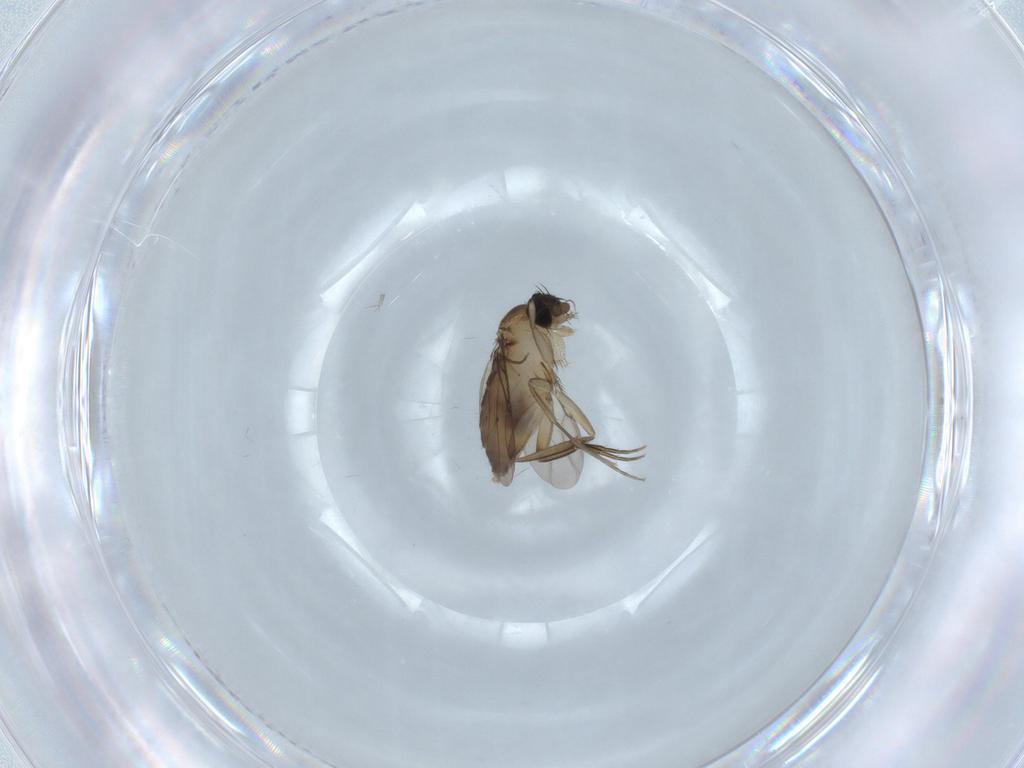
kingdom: Animalia
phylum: Arthropoda
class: Insecta
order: Diptera
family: Phoridae
